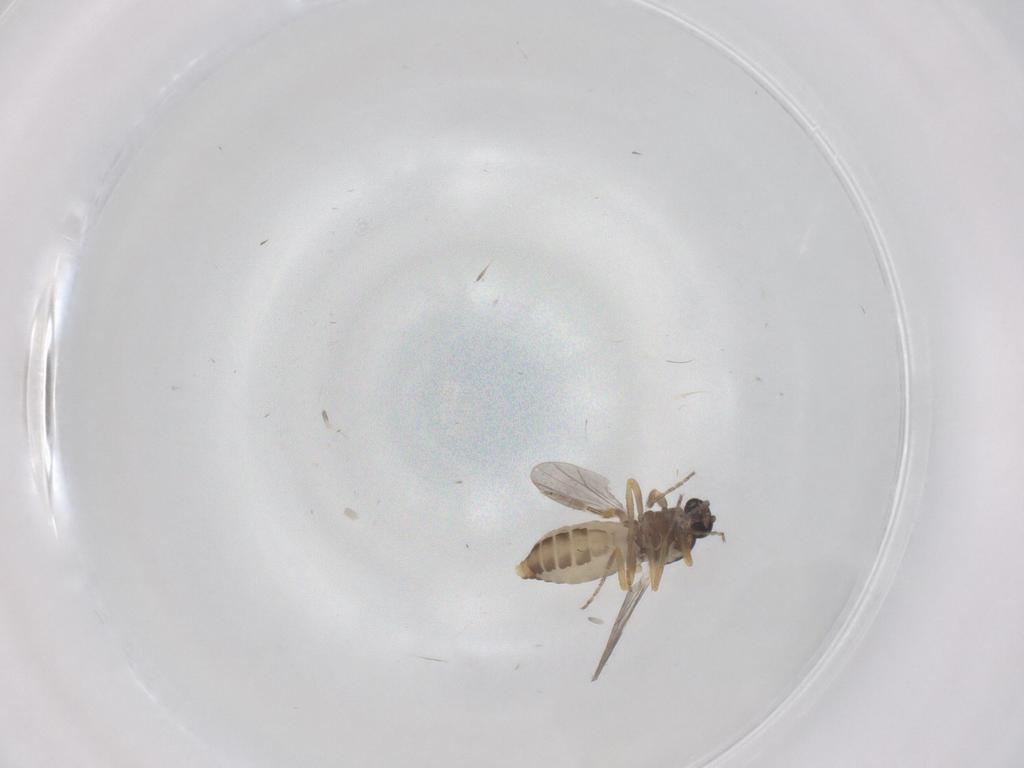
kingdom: Animalia
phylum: Arthropoda
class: Insecta
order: Diptera
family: Ceratopogonidae
